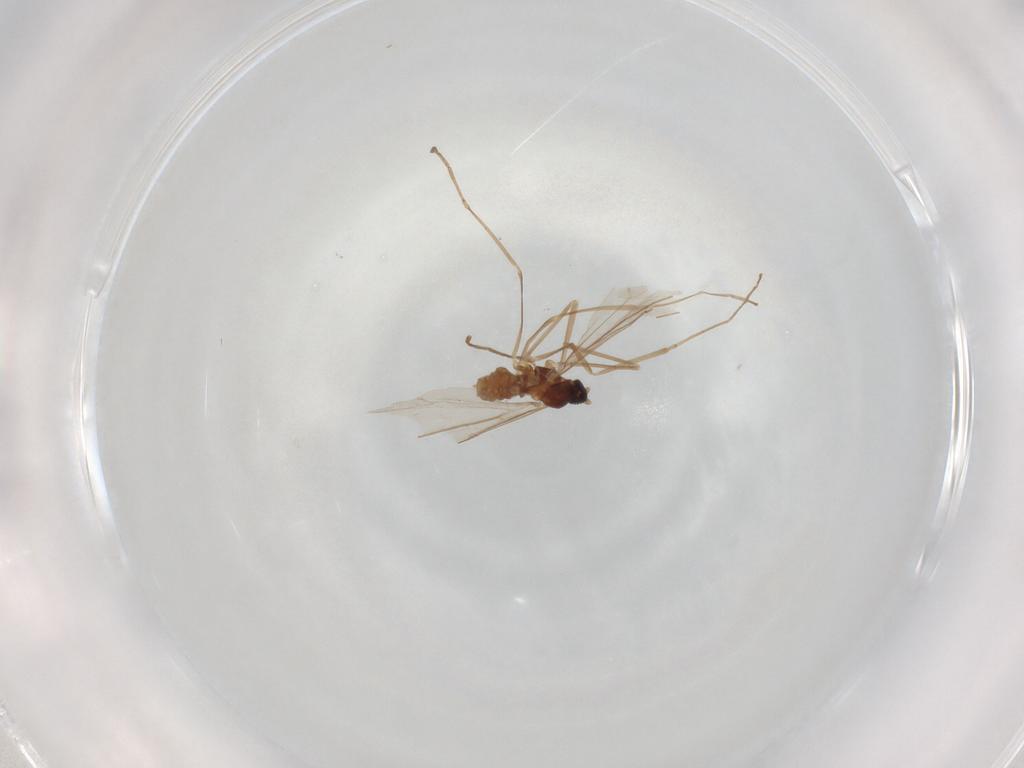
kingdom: Animalia
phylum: Arthropoda
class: Insecta
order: Diptera
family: Cecidomyiidae
